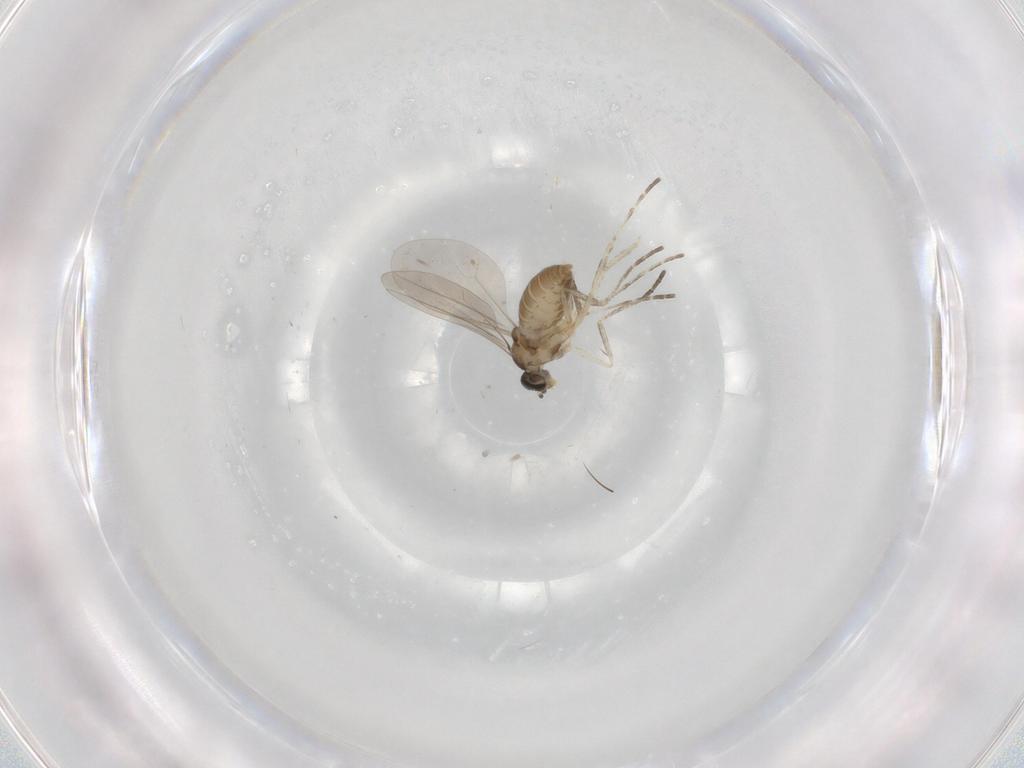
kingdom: Animalia
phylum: Arthropoda
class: Insecta
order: Diptera
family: Cecidomyiidae
